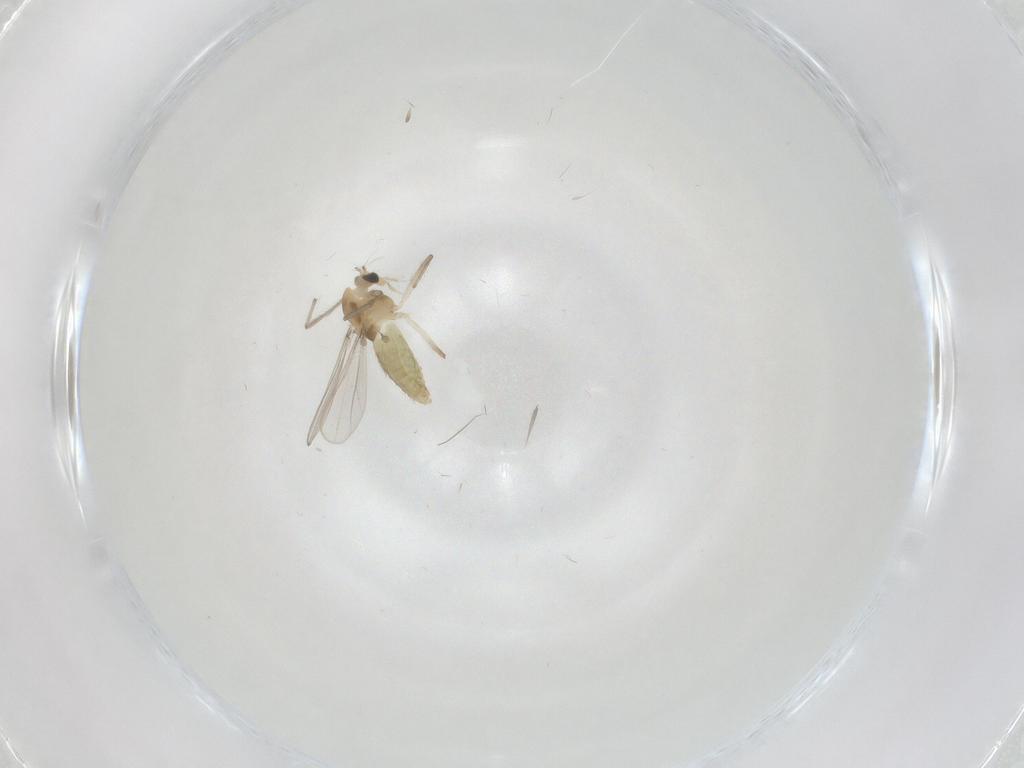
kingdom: Animalia
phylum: Arthropoda
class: Insecta
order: Diptera
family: Chironomidae
